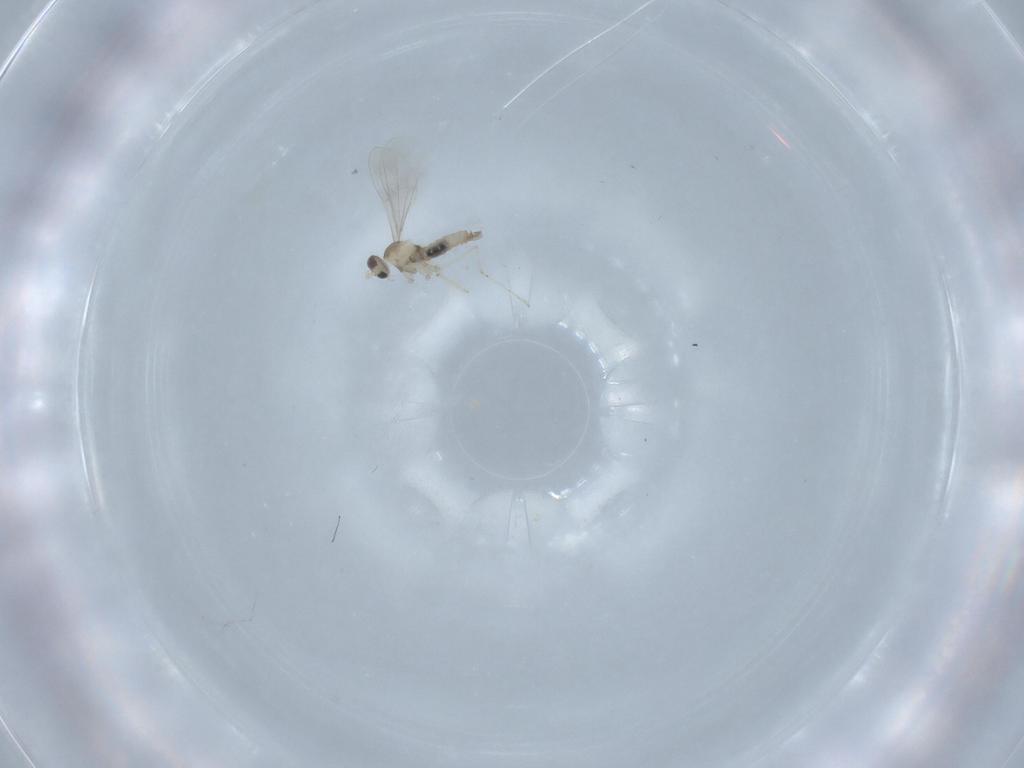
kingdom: Animalia
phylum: Arthropoda
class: Insecta
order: Diptera
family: Cecidomyiidae
